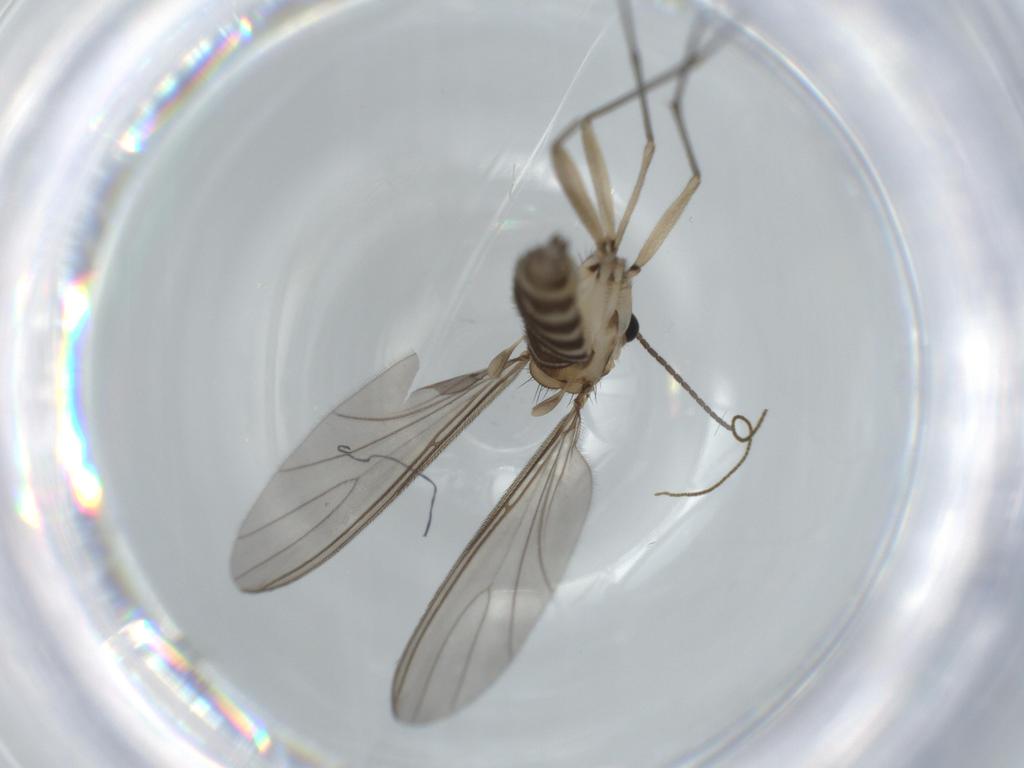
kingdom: Animalia
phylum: Arthropoda
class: Insecta
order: Diptera
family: Sciaridae
